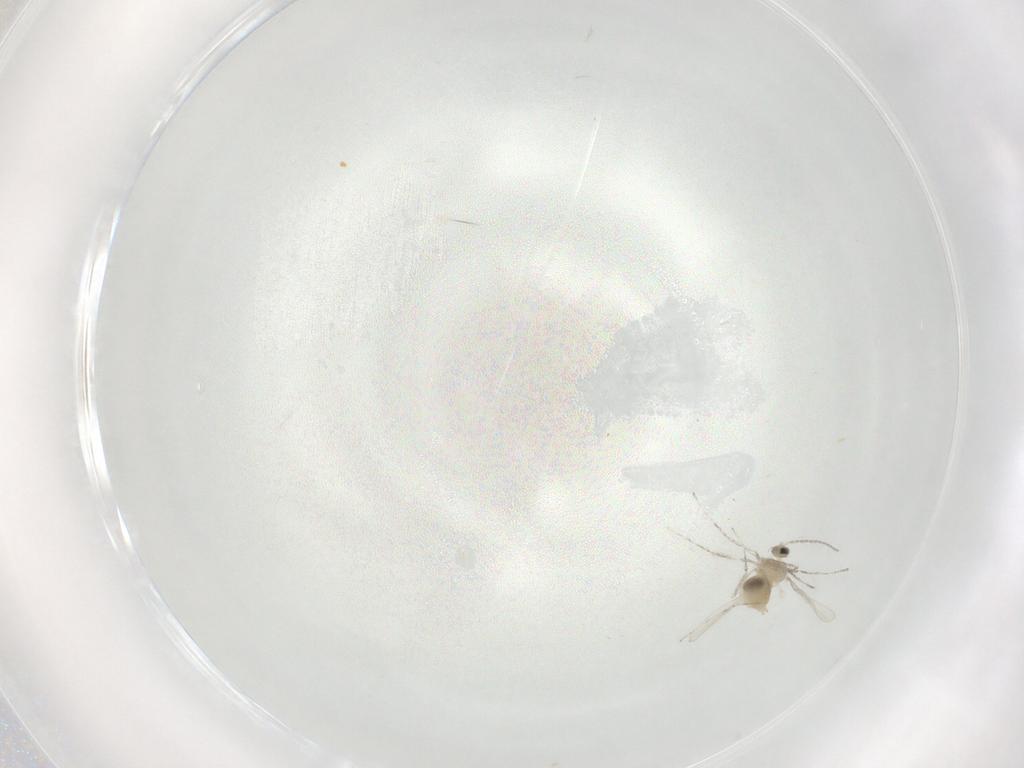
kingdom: Animalia
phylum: Arthropoda
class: Insecta
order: Diptera
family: Cecidomyiidae
